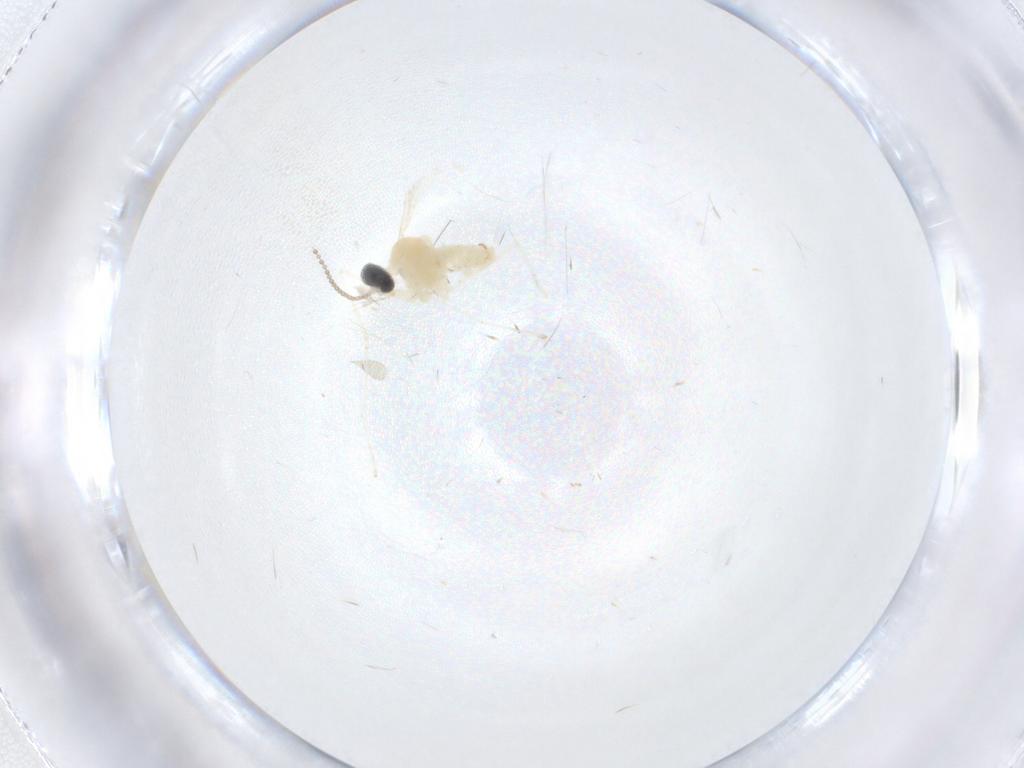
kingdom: Animalia
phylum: Arthropoda
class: Insecta
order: Diptera
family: Cecidomyiidae
